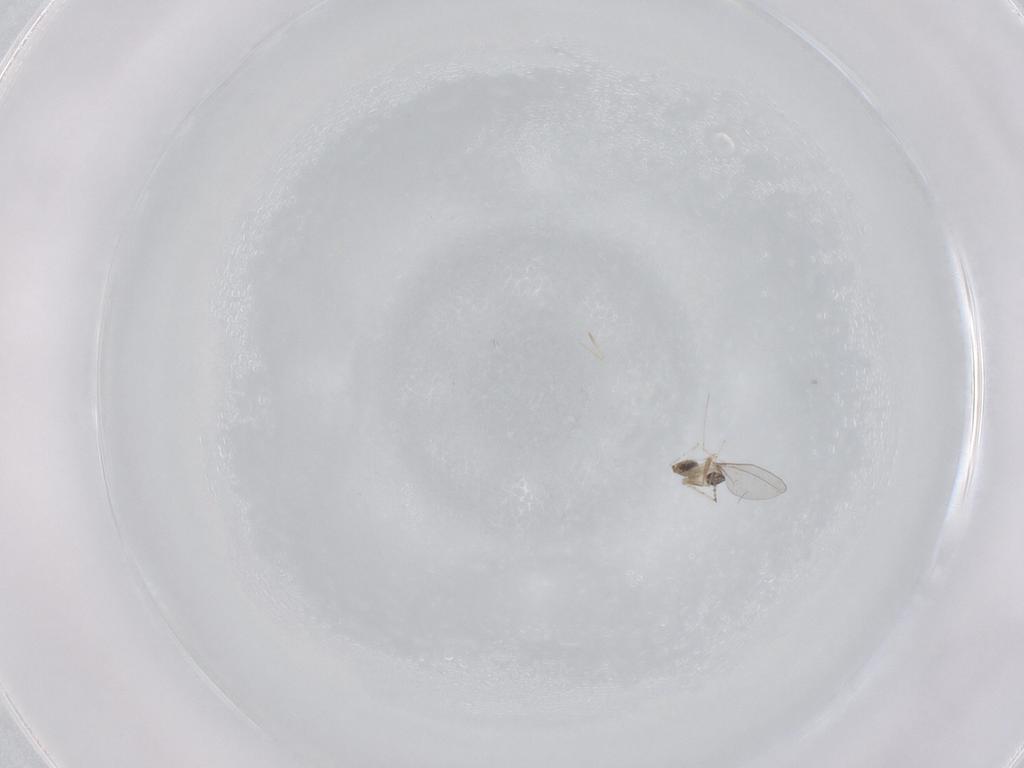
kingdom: Animalia
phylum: Arthropoda
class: Insecta
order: Diptera
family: Cecidomyiidae
